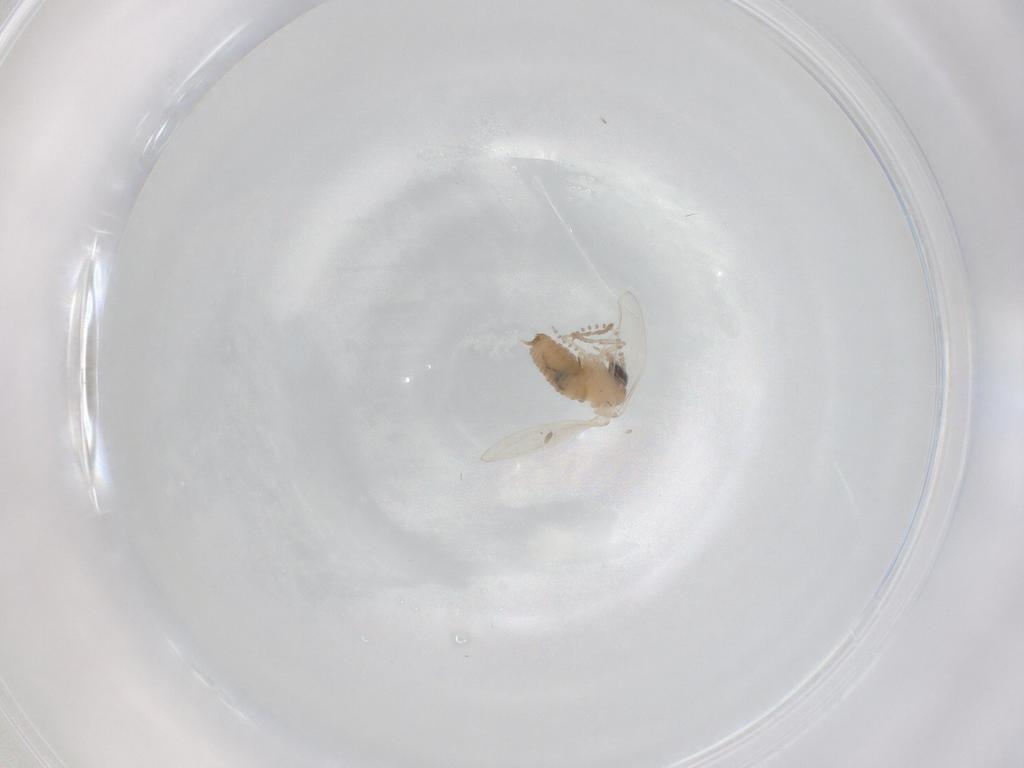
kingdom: Animalia
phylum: Arthropoda
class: Insecta
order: Diptera
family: Psychodidae
